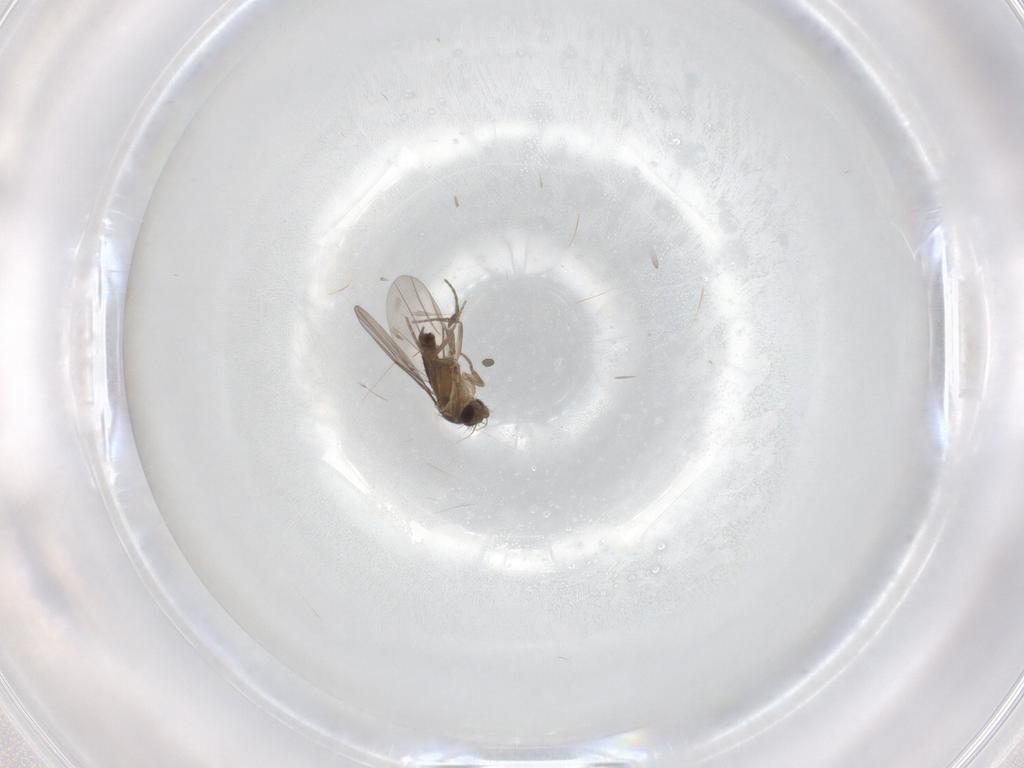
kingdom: Animalia
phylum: Arthropoda
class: Insecta
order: Diptera
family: Phoridae
